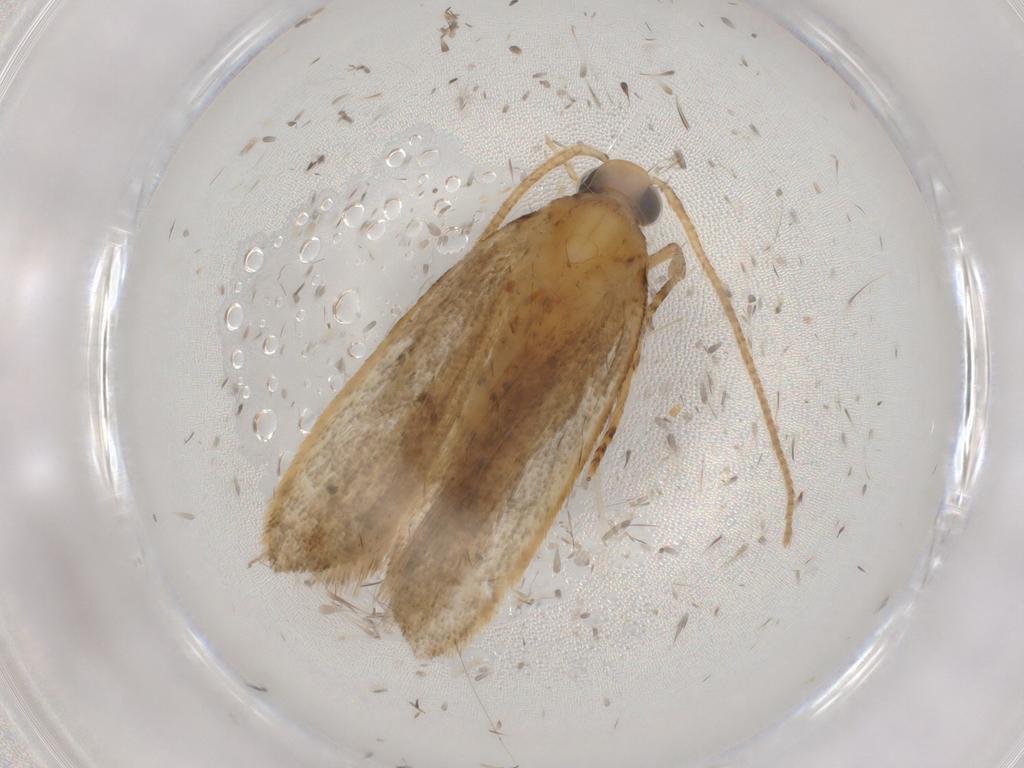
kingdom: Animalia
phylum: Arthropoda
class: Insecta
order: Lepidoptera
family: Autostichidae
